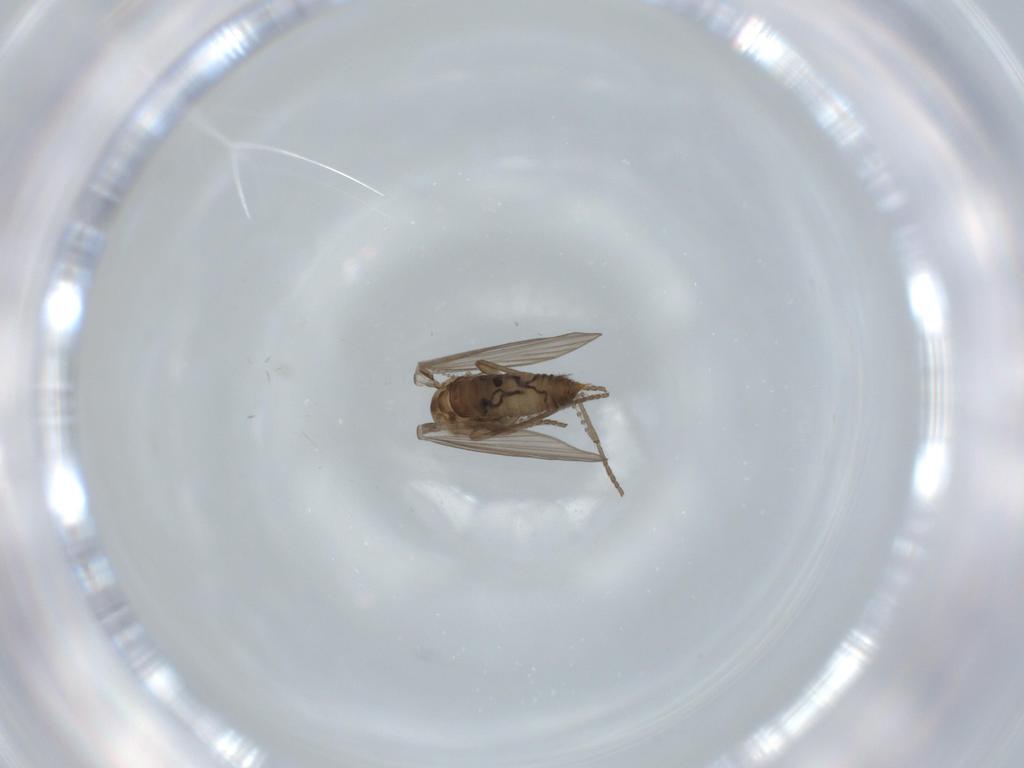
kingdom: Animalia
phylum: Arthropoda
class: Insecta
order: Diptera
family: Psychodidae
